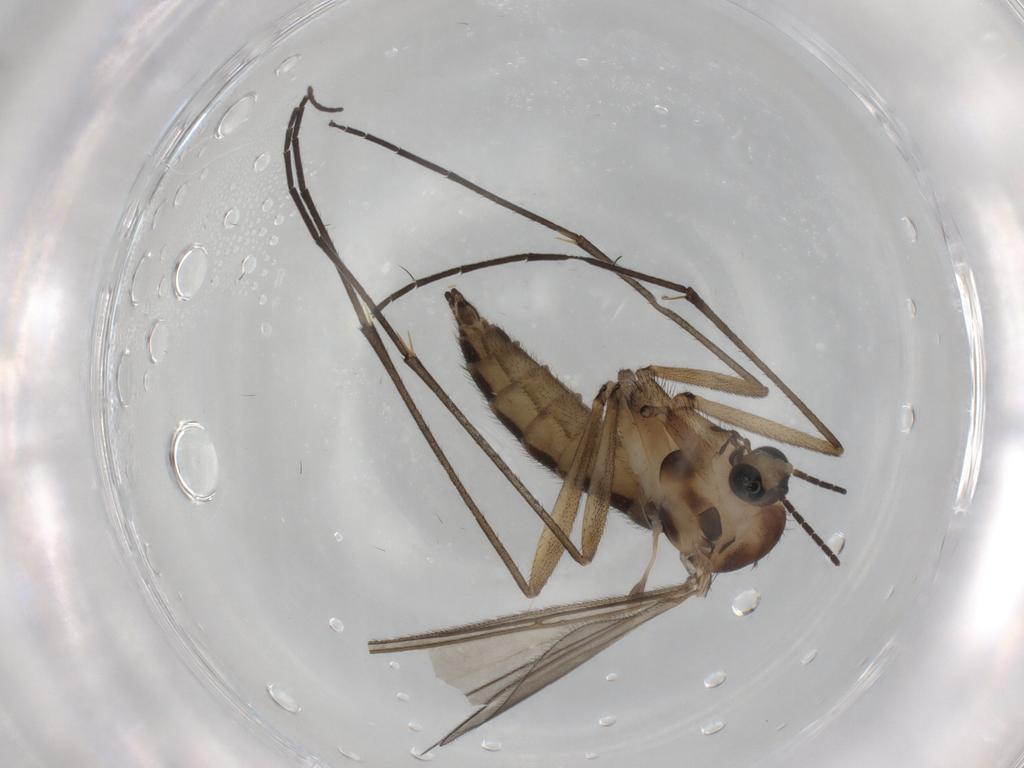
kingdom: Animalia
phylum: Arthropoda
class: Insecta
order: Diptera
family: Sciaridae
